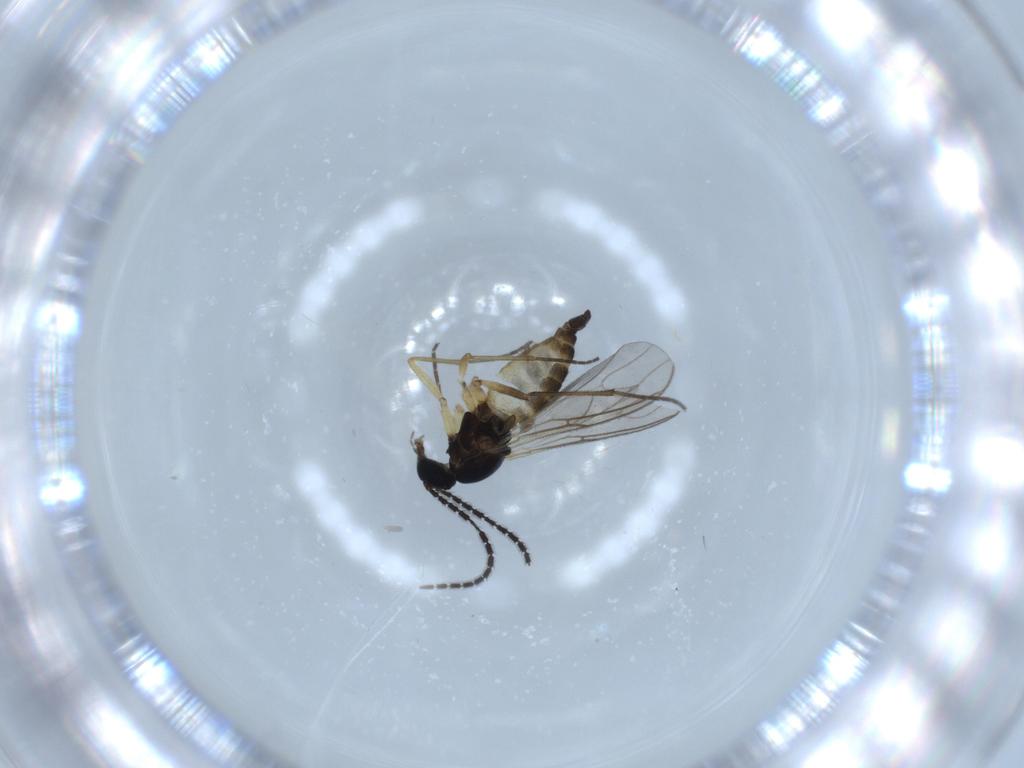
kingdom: Animalia
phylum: Arthropoda
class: Insecta
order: Diptera
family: Sciaridae
